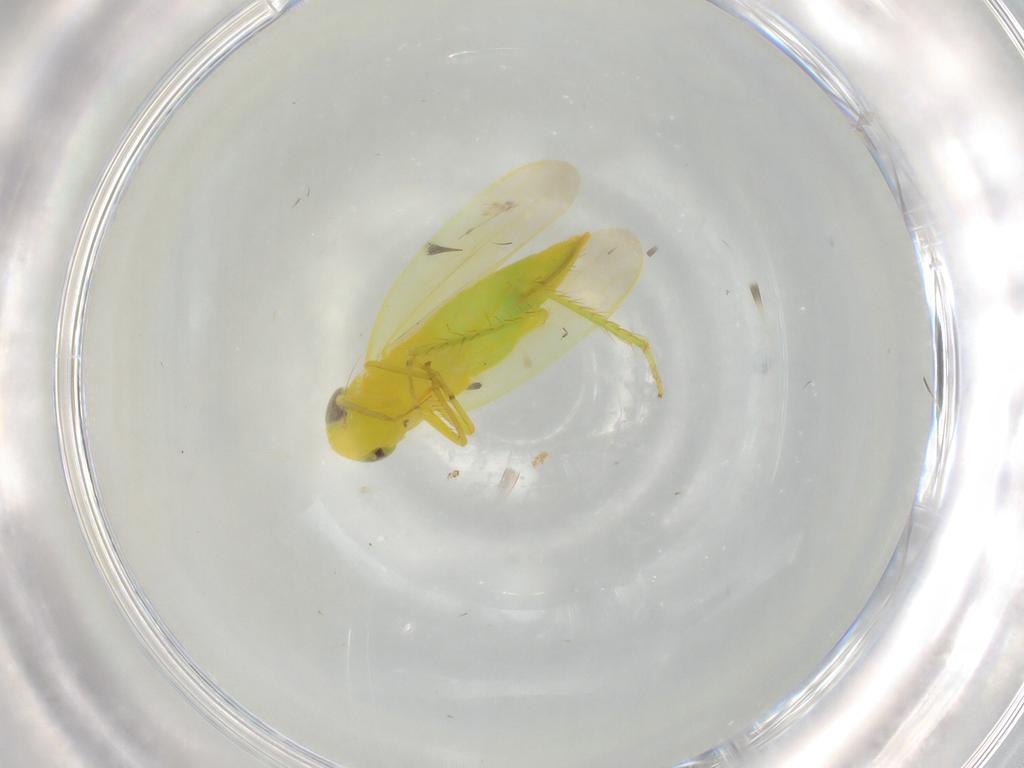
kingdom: Animalia
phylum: Arthropoda
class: Insecta
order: Hemiptera
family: Cicadellidae
